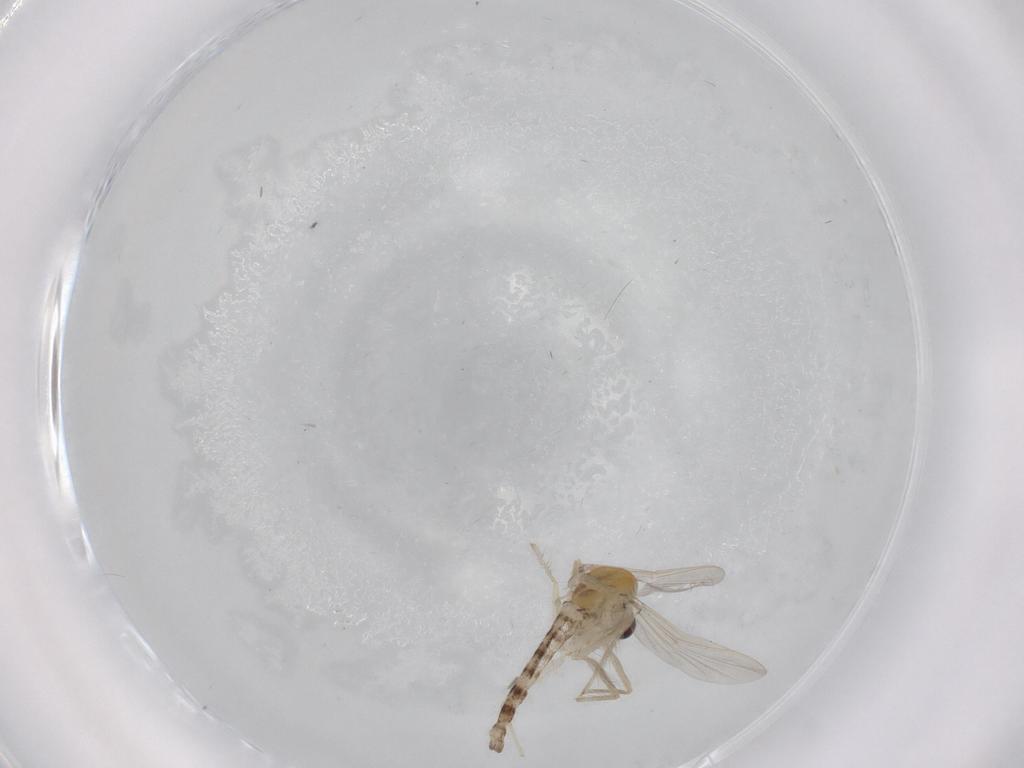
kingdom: Animalia
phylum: Arthropoda
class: Insecta
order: Diptera
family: Chironomidae
